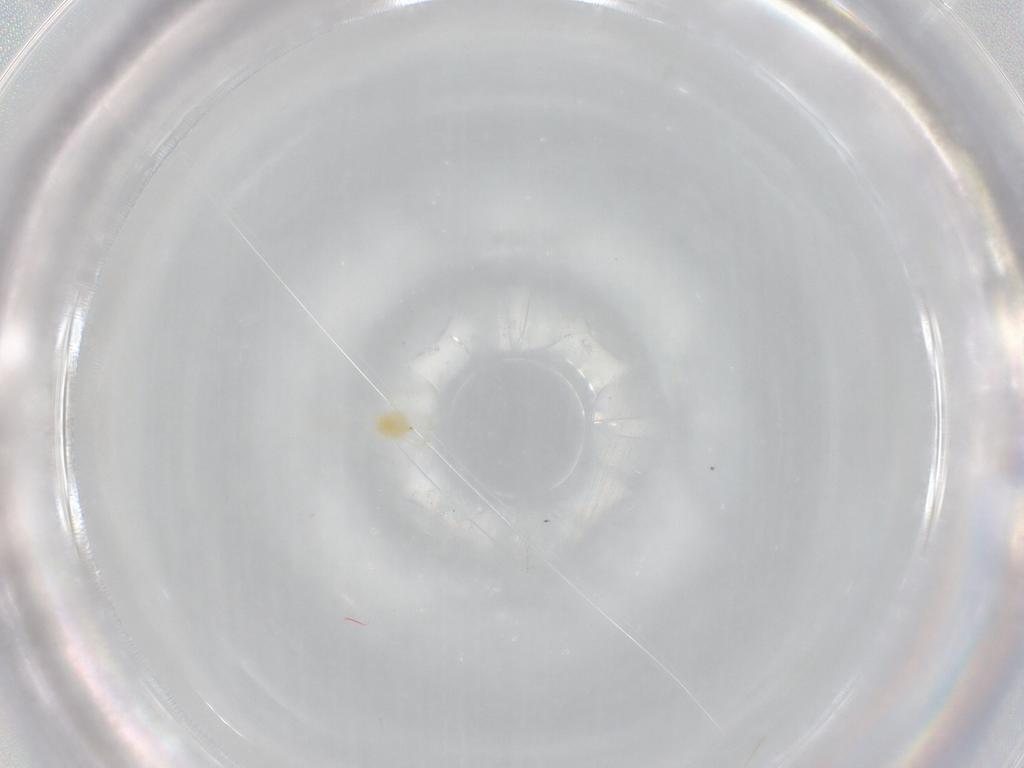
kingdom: Animalia
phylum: Arthropoda
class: Arachnida
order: Trombidiformes
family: Tetranychidae
